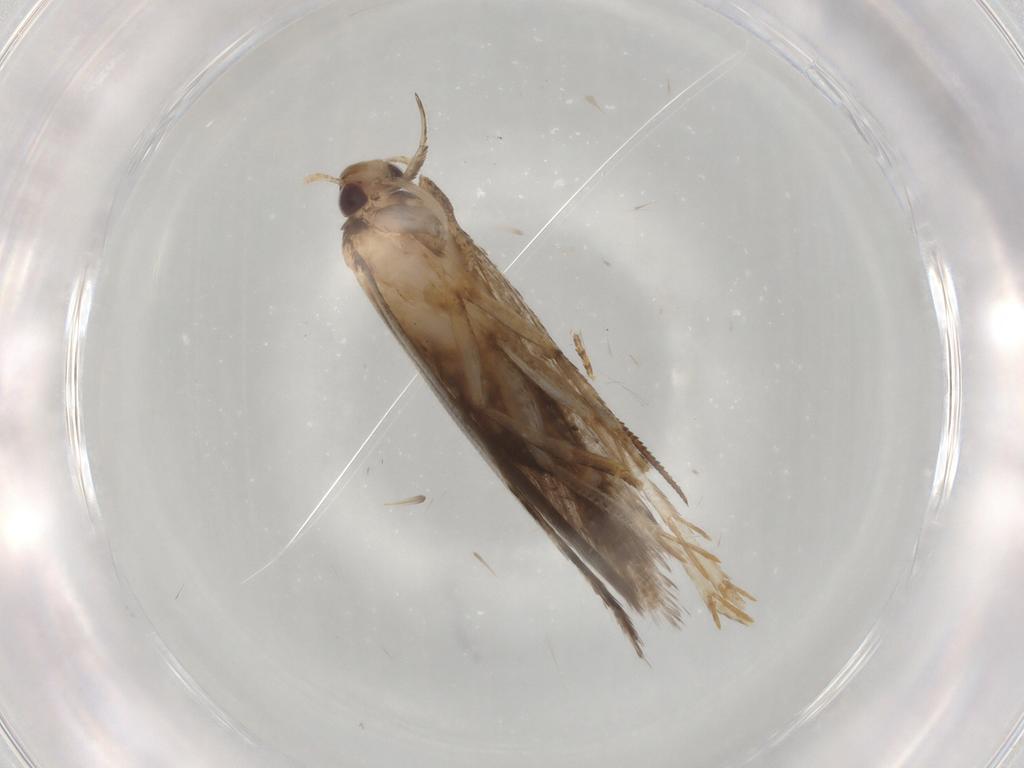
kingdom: Animalia
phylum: Arthropoda
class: Insecta
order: Lepidoptera
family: Gelechiidae
